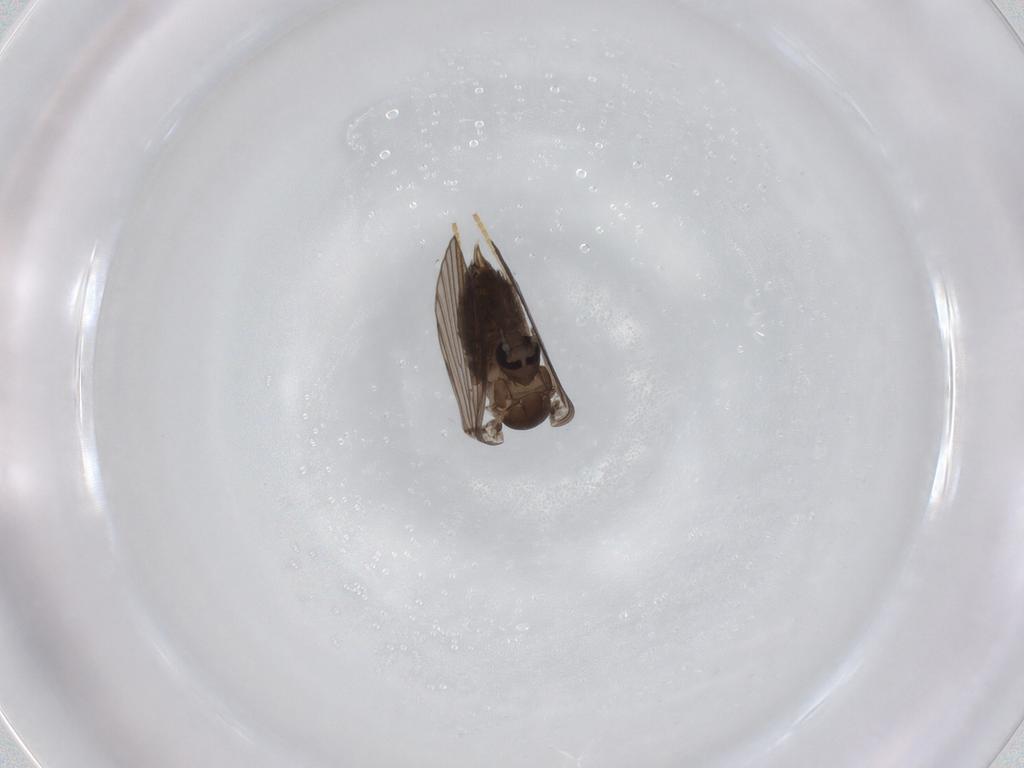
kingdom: Animalia
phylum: Arthropoda
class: Insecta
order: Diptera
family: Psychodidae
